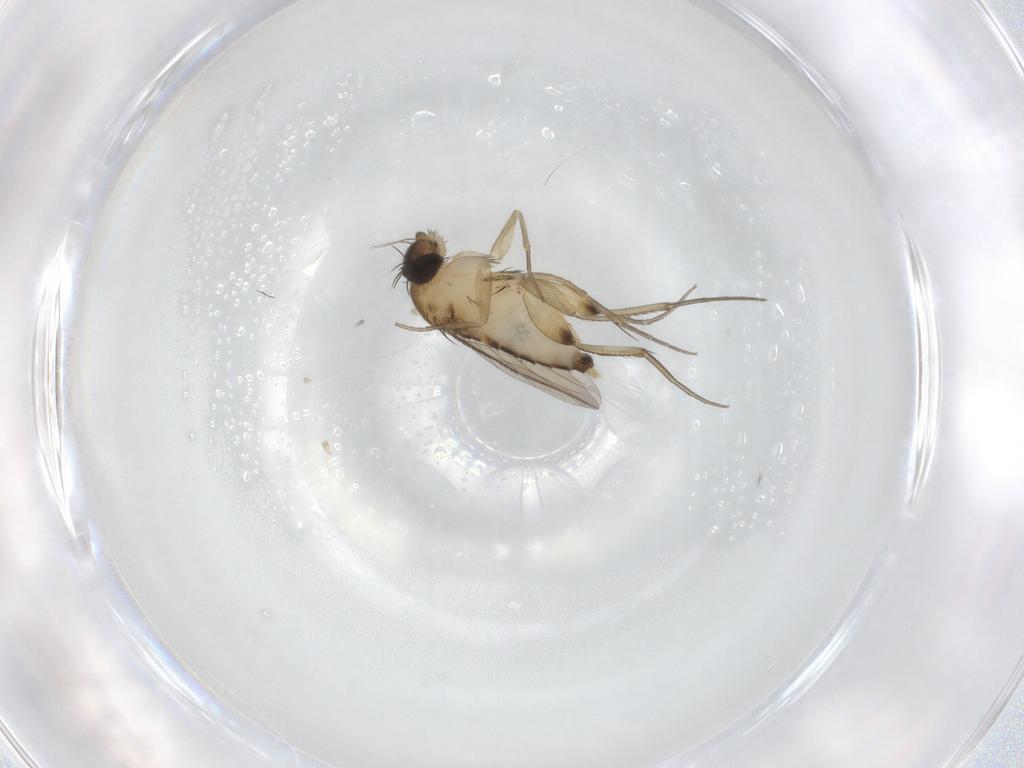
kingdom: Animalia
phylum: Arthropoda
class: Insecta
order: Diptera
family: Phoridae
